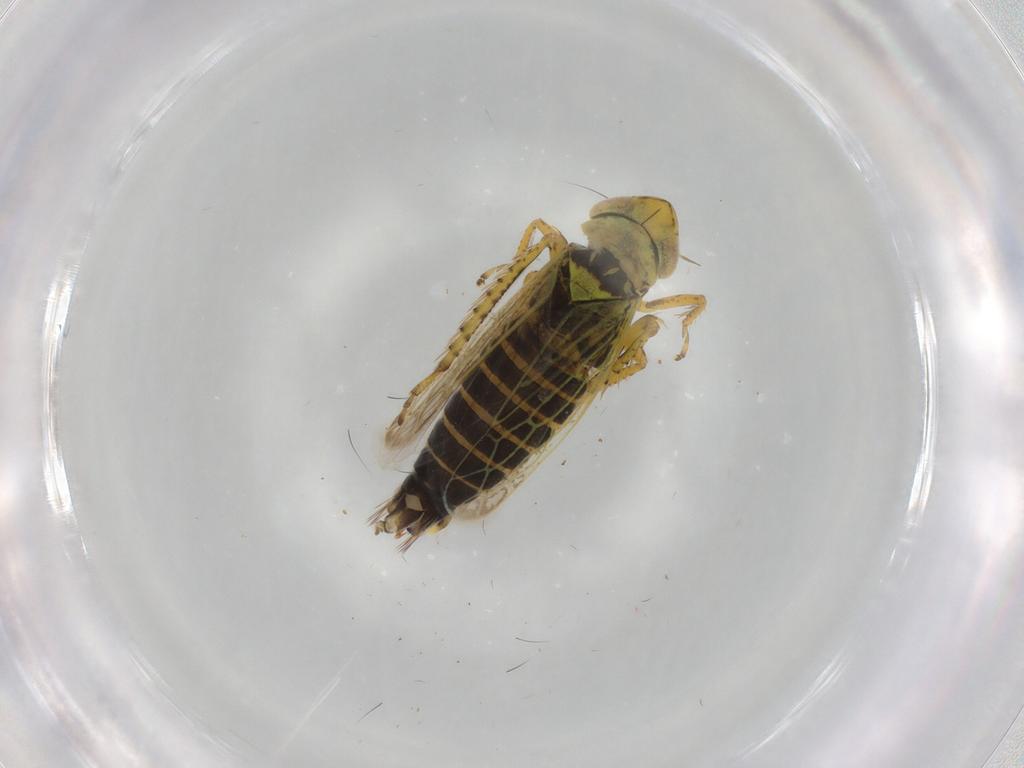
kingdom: Animalia
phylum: Arthropoda
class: Insecta
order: Hemiptera
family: Cicadellidae
